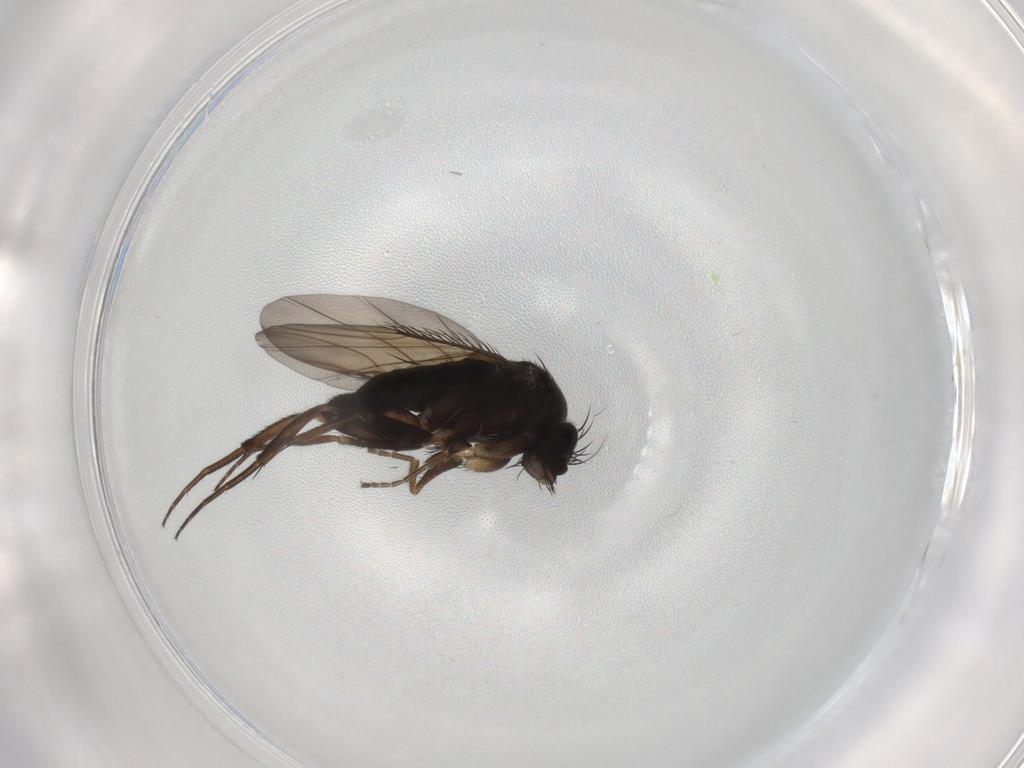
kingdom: Animalia
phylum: Arthropoda
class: Insecta
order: Diptera
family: Phoridae
